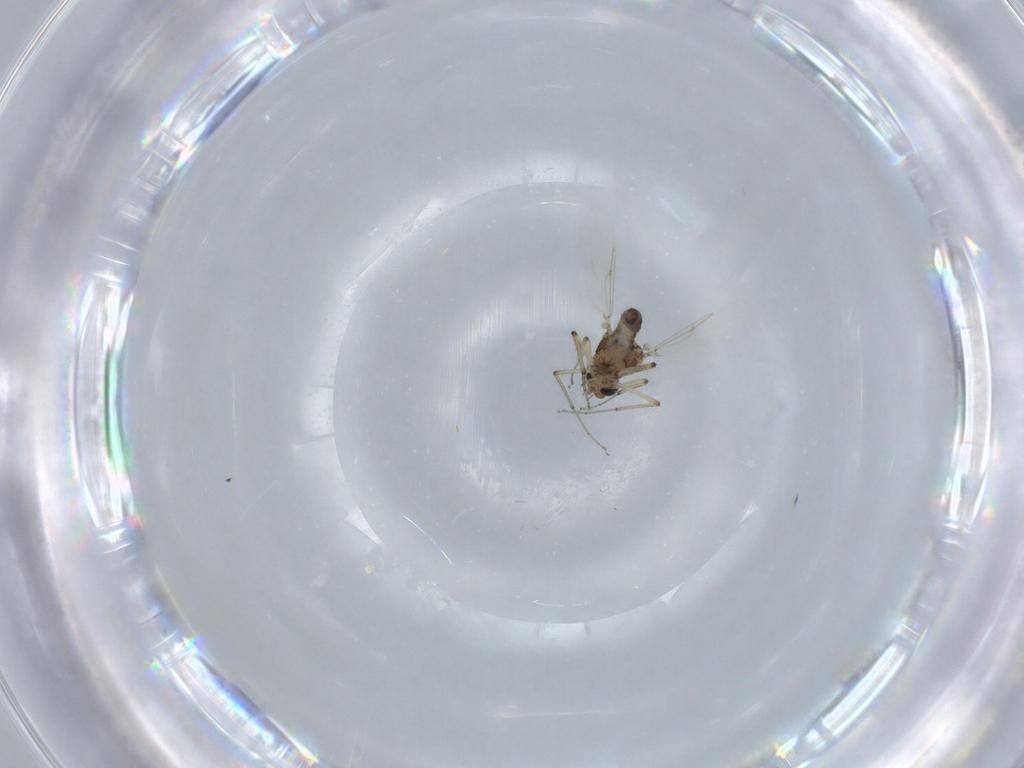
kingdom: Animalia
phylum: Arthropoda
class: Insecta
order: Diptera
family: Ceratopogonidae
